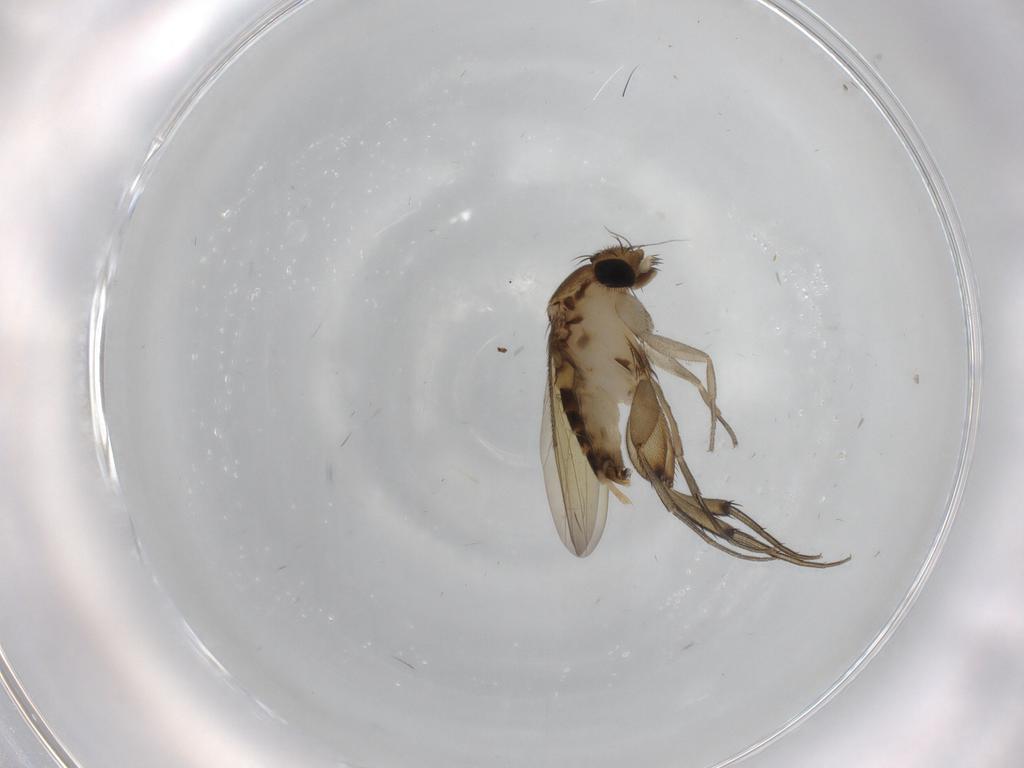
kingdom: Animalia
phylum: Arthropoda
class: Insecta
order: Diptera
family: Phoridae
